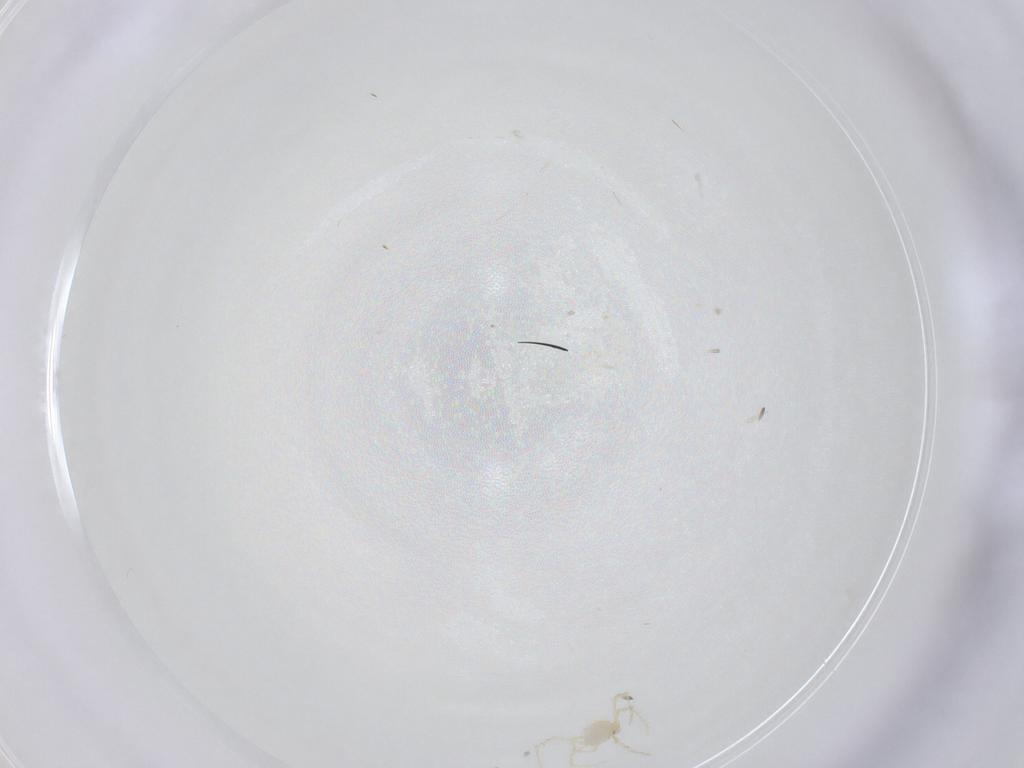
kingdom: Animalia
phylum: Arthropoda
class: Arachnida
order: Trombidiformes
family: Erythraeidae
